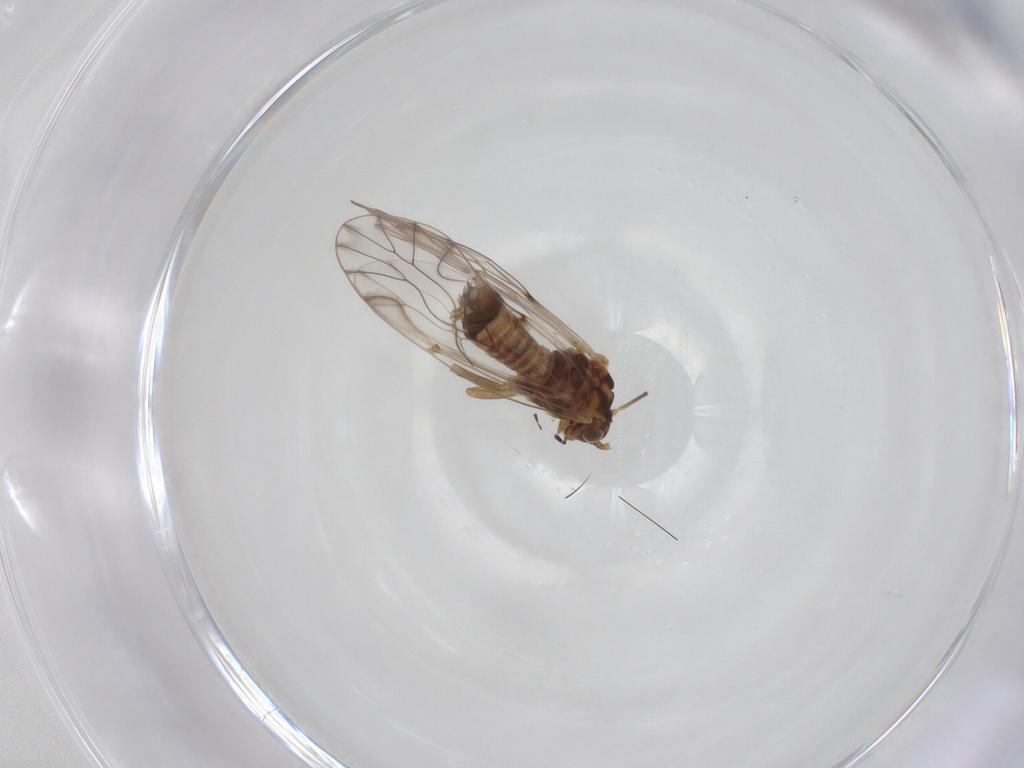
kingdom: Animalia
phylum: Arthropoda
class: Insecta
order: Psocodea
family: Lachesillidae
